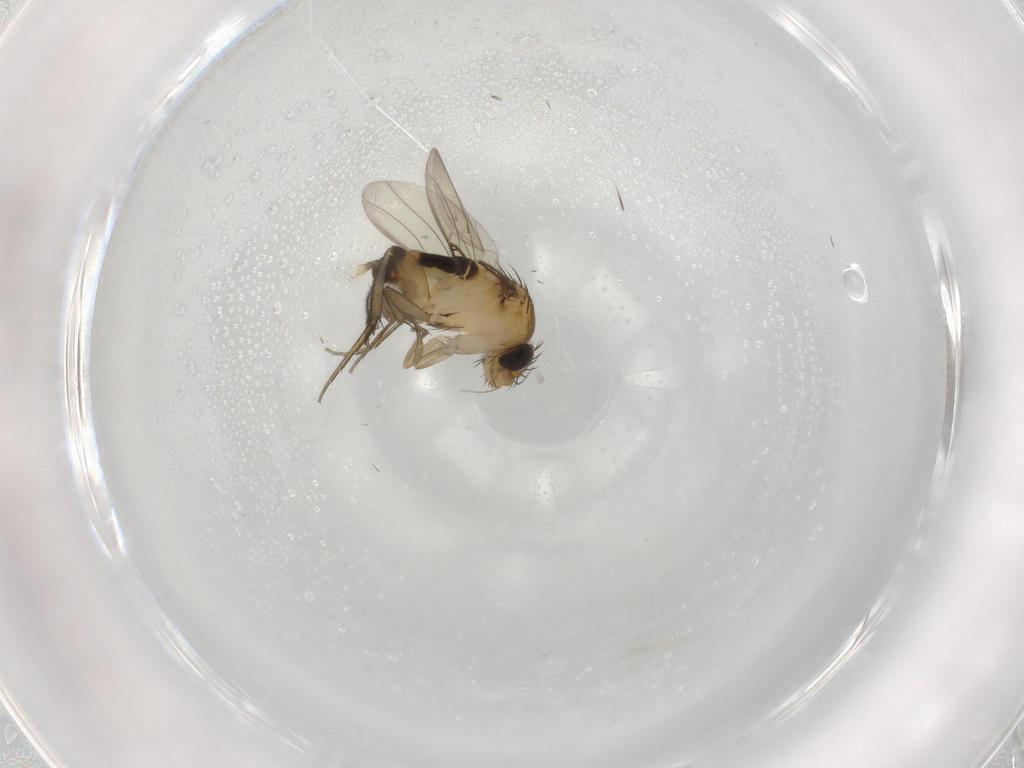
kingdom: Animalia
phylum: Arthropoda
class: Insecta
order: Diptera
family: Phoridae
